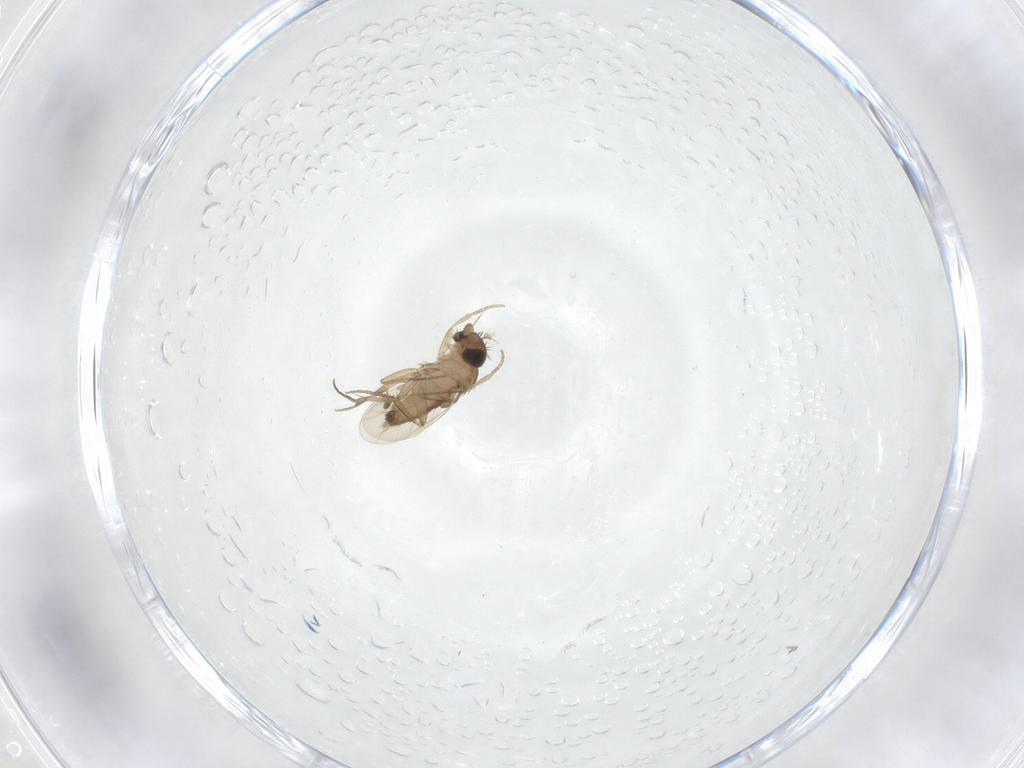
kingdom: Animalia
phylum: Arthropoda
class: Insecta
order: Diptera
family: Phoridae
